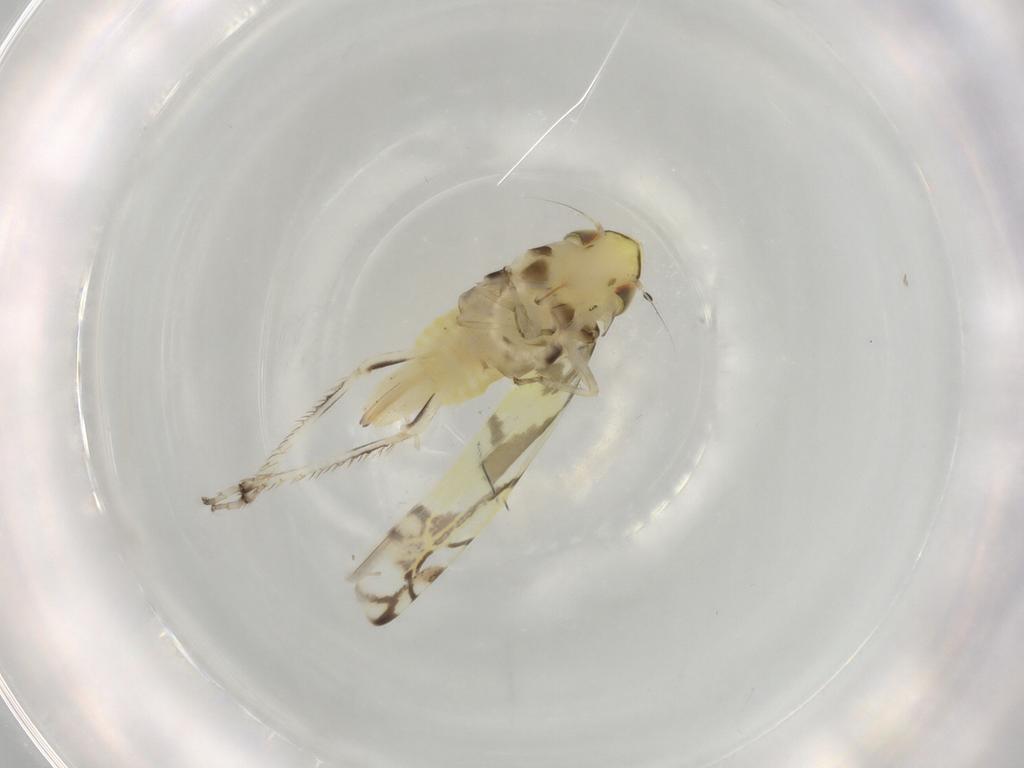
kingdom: Animalia
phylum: Arthropoda
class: Insecta
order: Hemiptera
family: Cicadellidae
